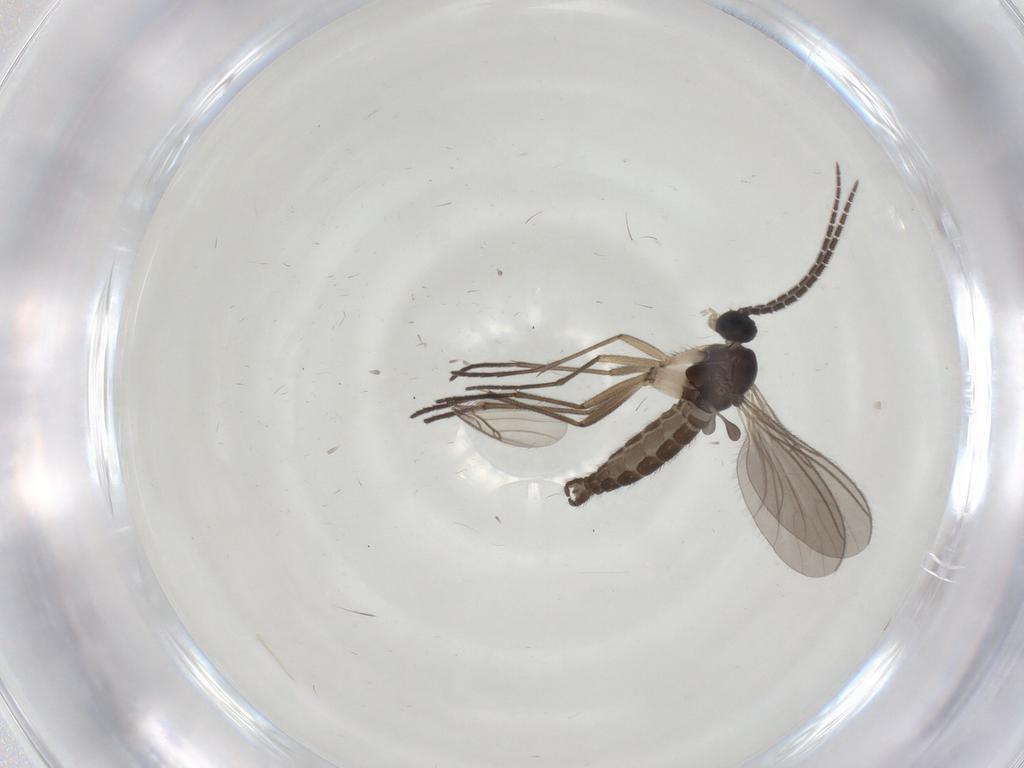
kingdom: Animalia
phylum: Arthropoda
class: Insecta
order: Diptera
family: Sciaridae
